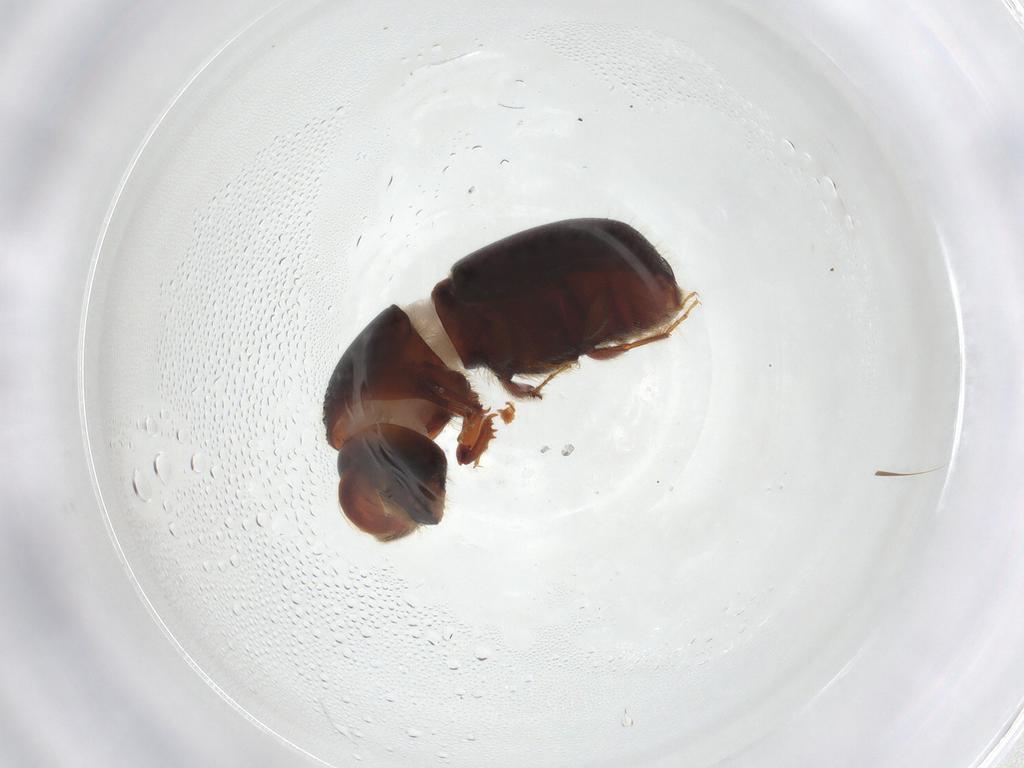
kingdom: Animalia
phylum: Arthropoda
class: Insecta
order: Coleoptera
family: Curculionidae
